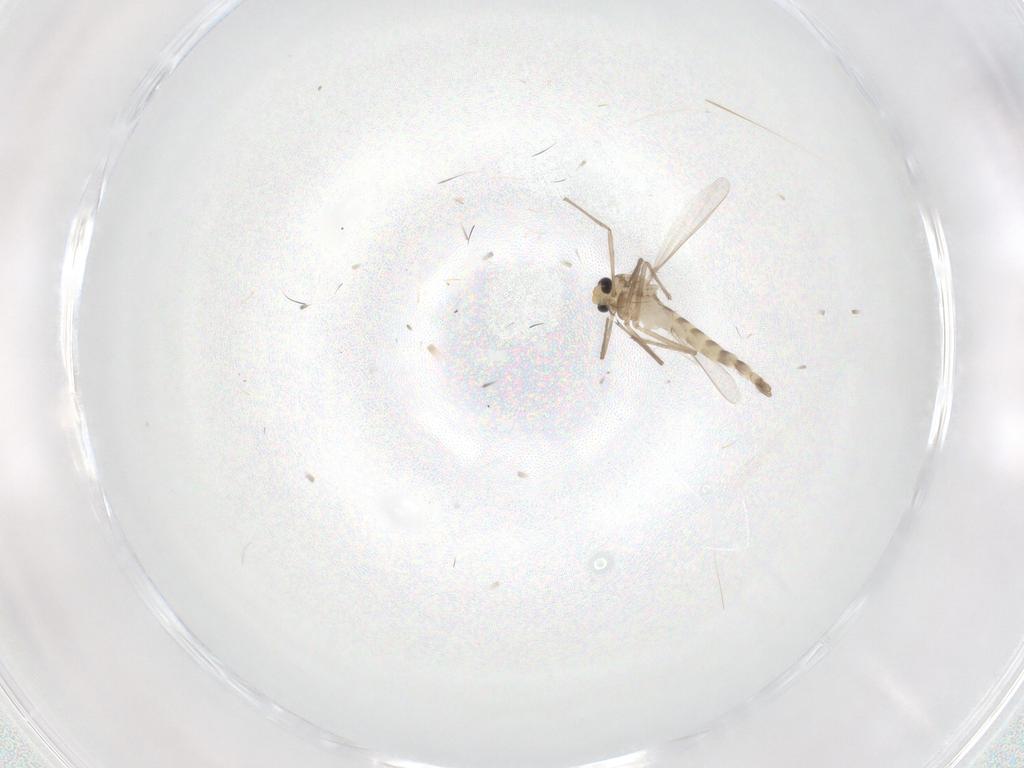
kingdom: Animalia
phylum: Arthropoda
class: Insecta
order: Diptera
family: Chironomidae
